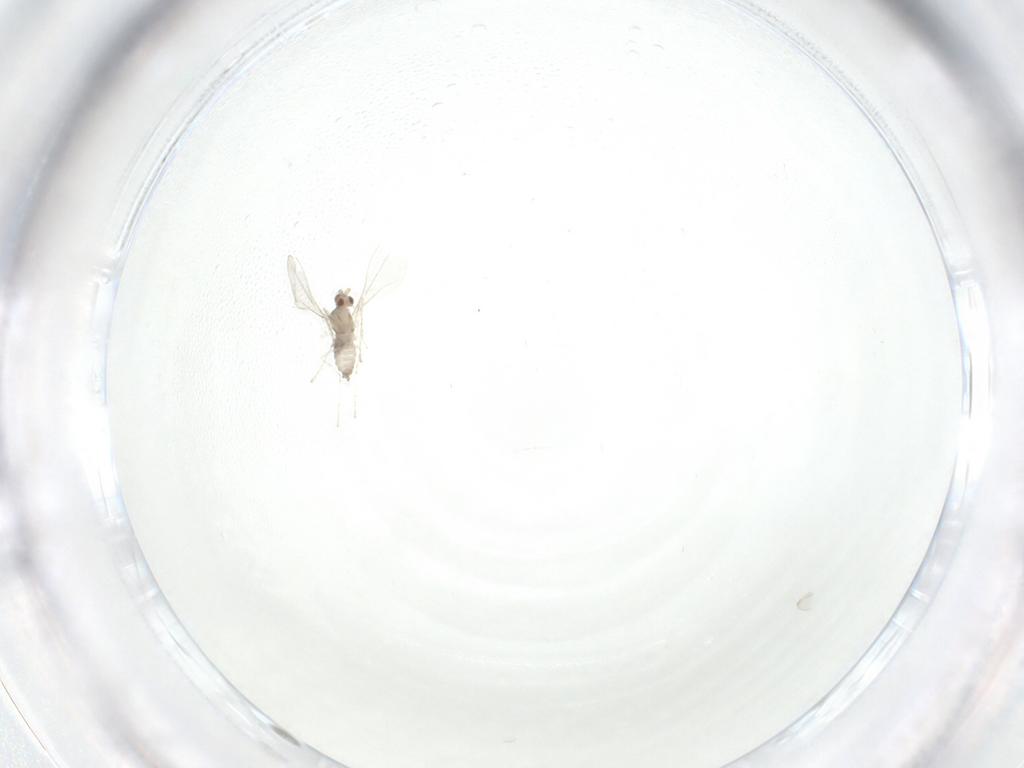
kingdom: Animalia
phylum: Arthropoda
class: Insecta
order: Diptera
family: Cecidomyiidae
